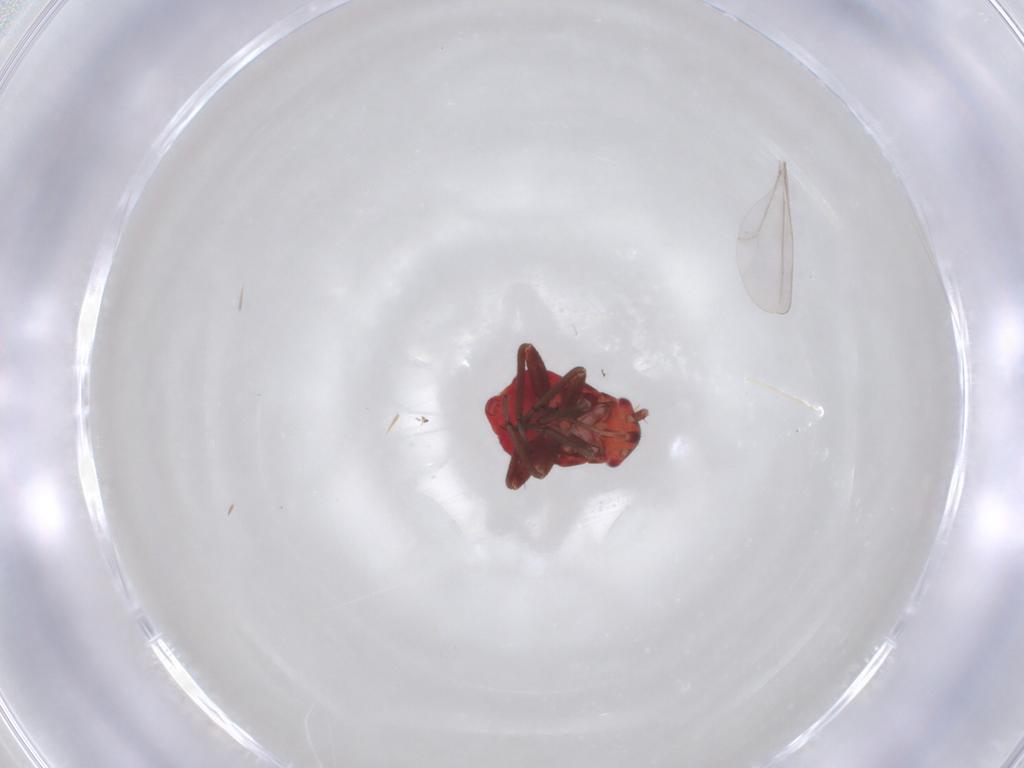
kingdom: Animalia
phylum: Arthropoda
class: Insecta
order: Hemiptera
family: Miridae
